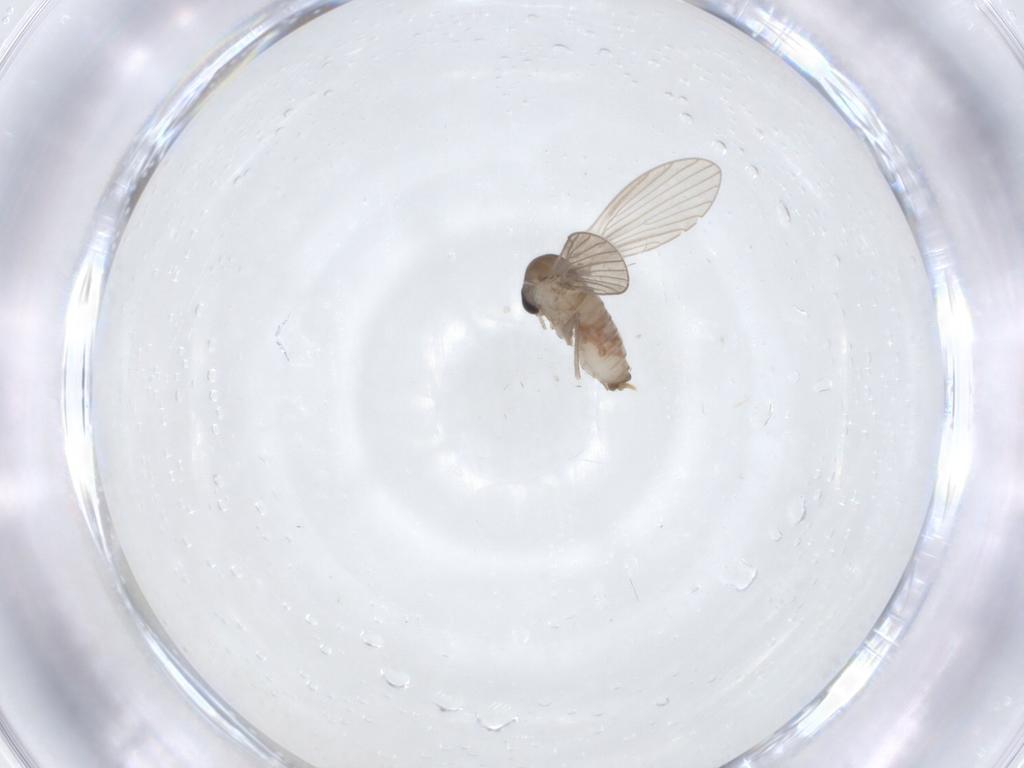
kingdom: Animalia
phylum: Arthropoda
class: Insecta
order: Diptera
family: Psychodidae
